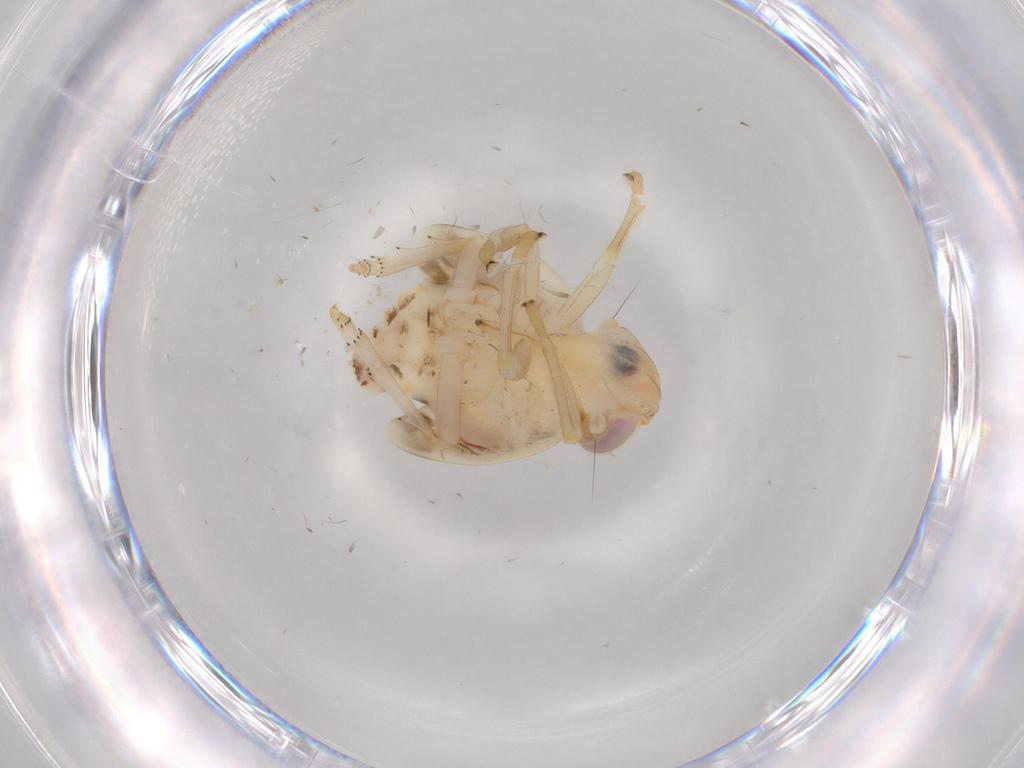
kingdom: Animalia
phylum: Arthropoda
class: Insecta
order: Hemiptera
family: Nogodinidae
